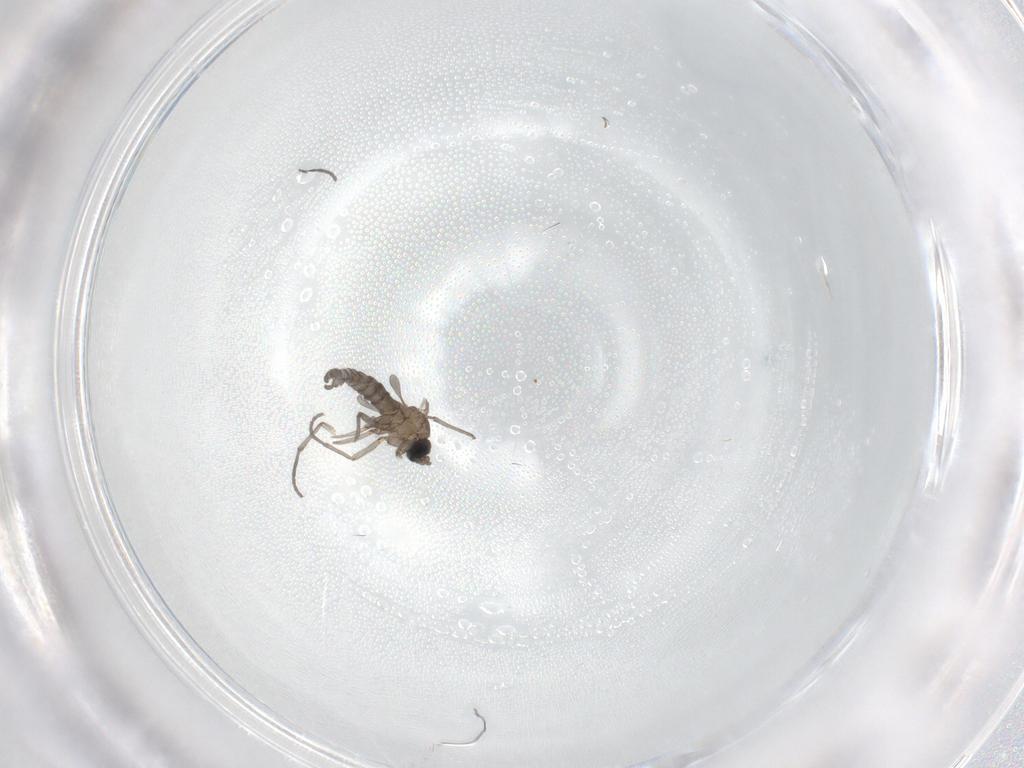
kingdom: Animalia
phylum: Arthropoda
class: Insecta
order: Diptera
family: Sciaridae
